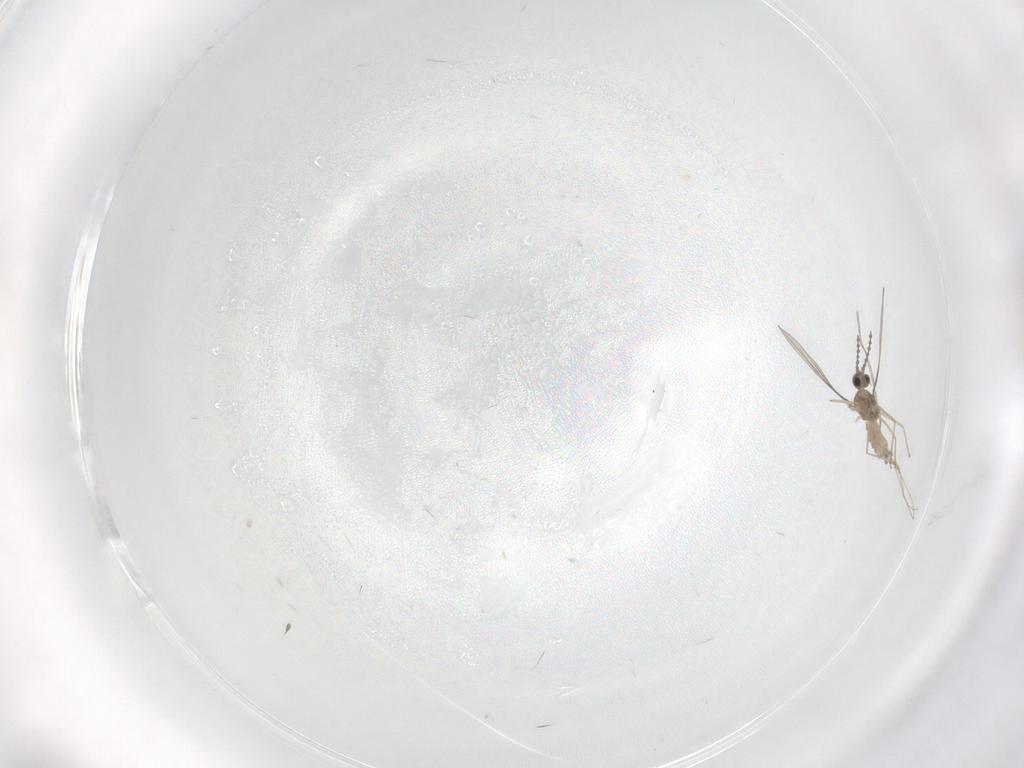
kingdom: Animalia
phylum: Arthropoda
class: Insecta
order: Diptera
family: Cecidomyiidae
